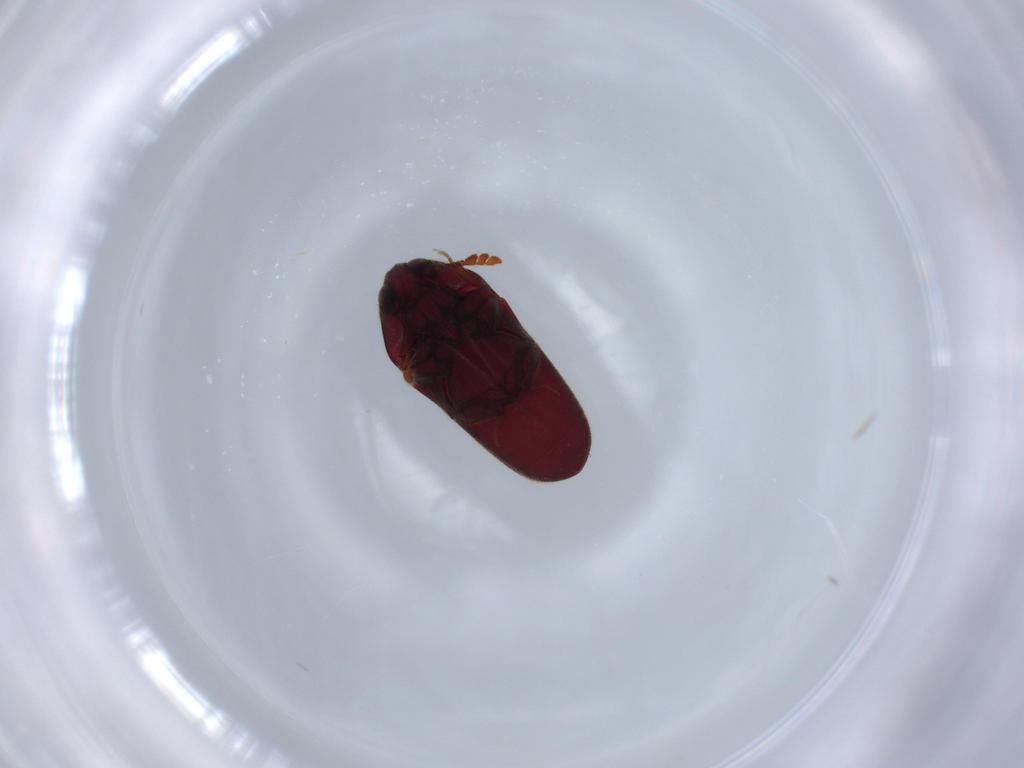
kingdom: Animalia
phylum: Arthropoda
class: Insecta
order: Coleoptera
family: Throscidae
